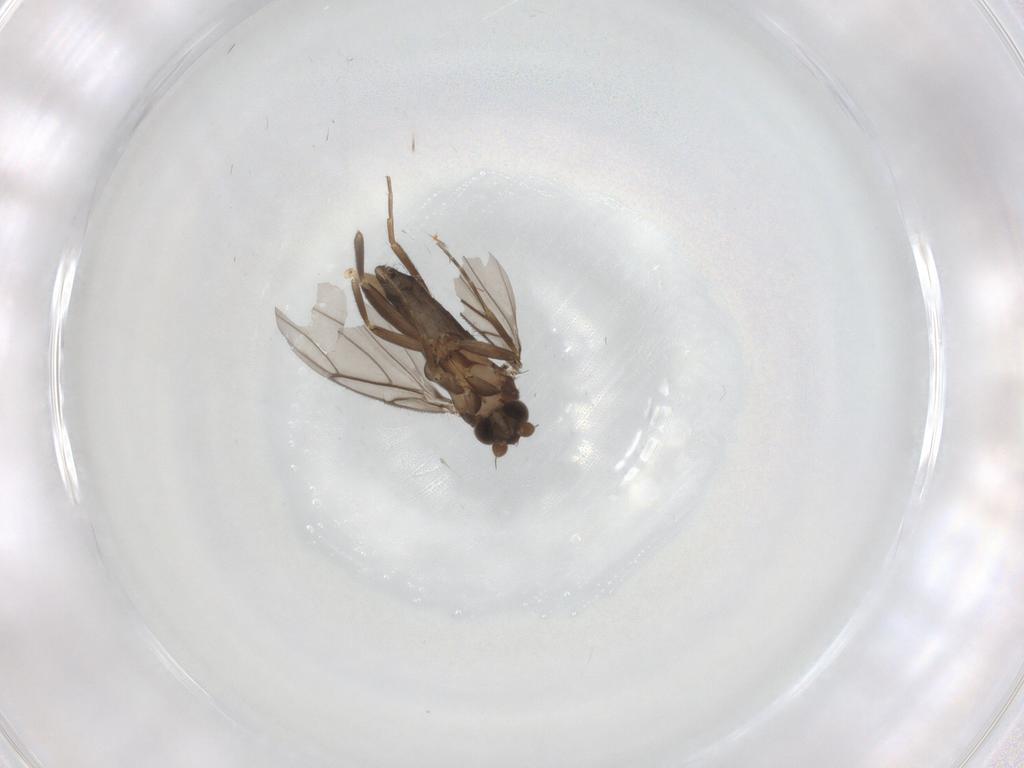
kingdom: Animalia
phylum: Arthropoda
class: Insecta
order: Diptera
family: Phoridae
